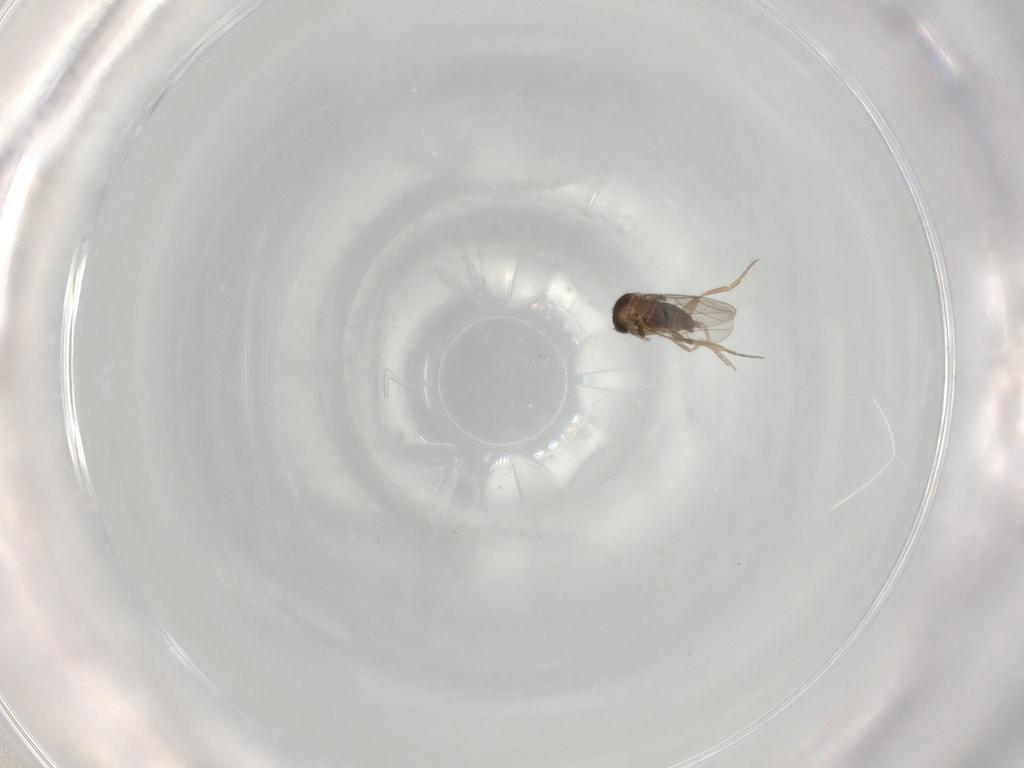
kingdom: Animalia
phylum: Arthropoda
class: Insecta
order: Diptera
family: Phoridae
